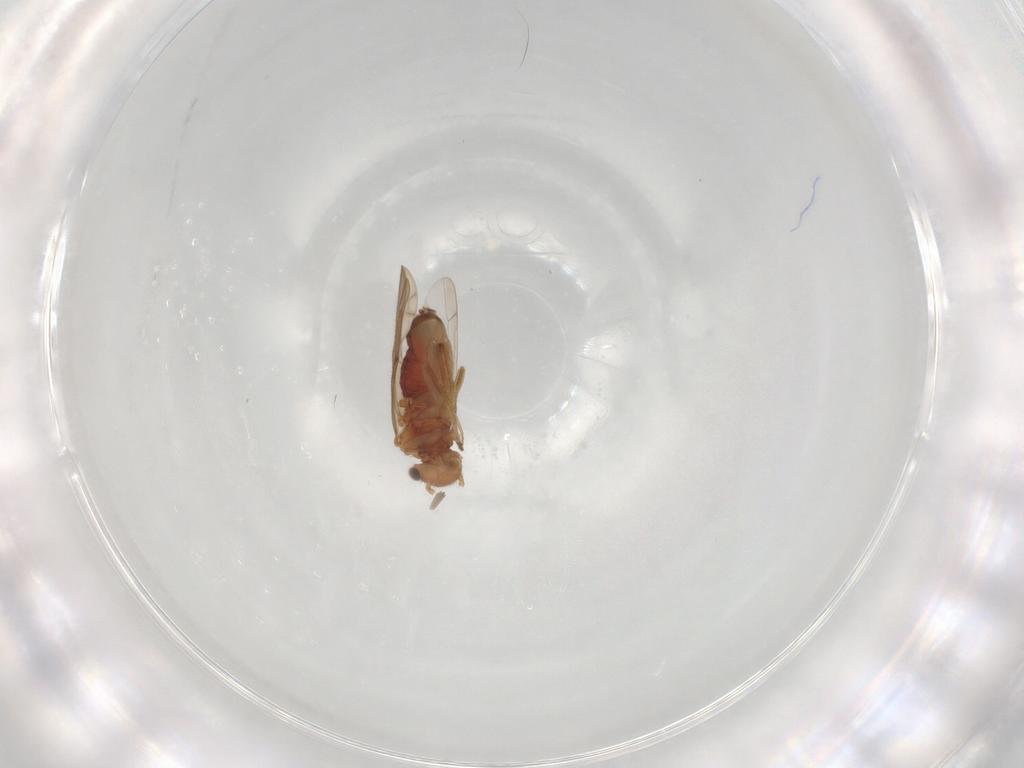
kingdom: Animalia
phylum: Arthropoda
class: Insecta
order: Psocodea
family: Ectopsocidae
